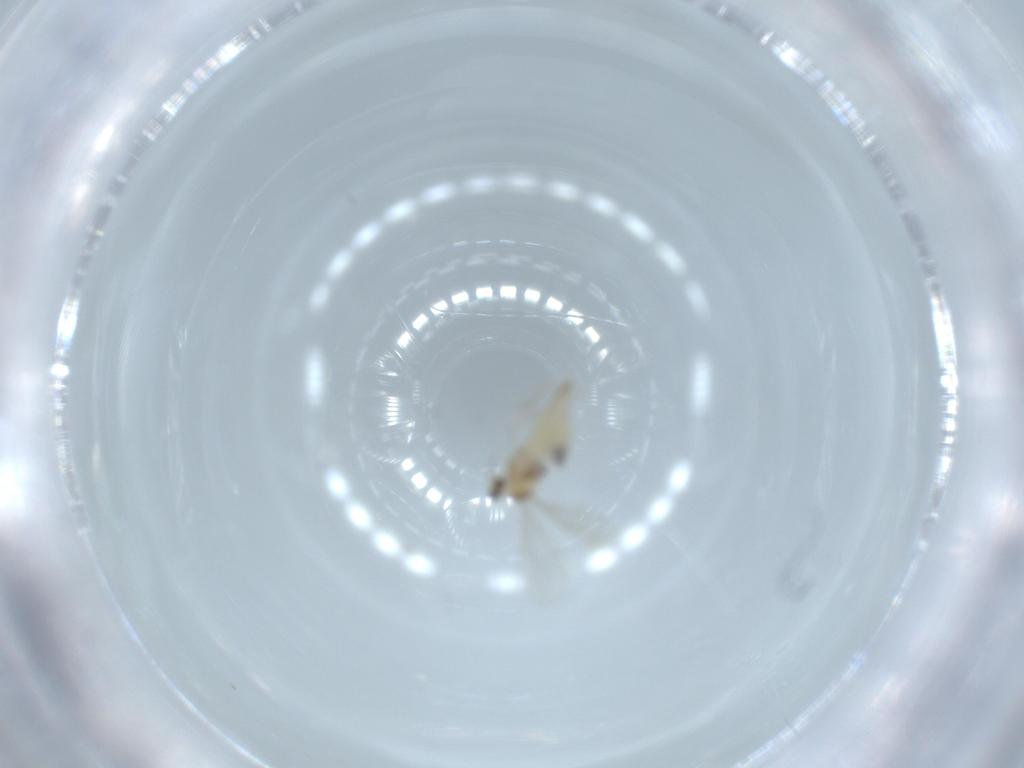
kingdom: Animalia
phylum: Arthropoda
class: Insecta
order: Diptera
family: Cecidomyiidae
